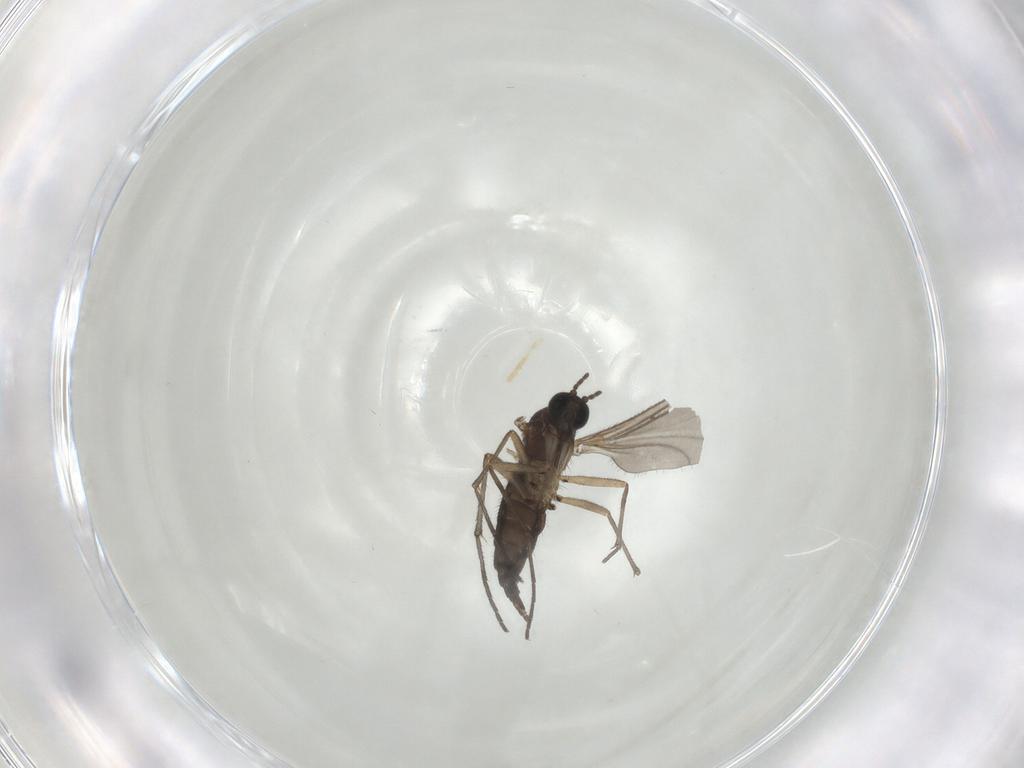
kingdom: Animalia
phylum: Arthropoda
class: Insecta
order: Diptera
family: Sciaridae
